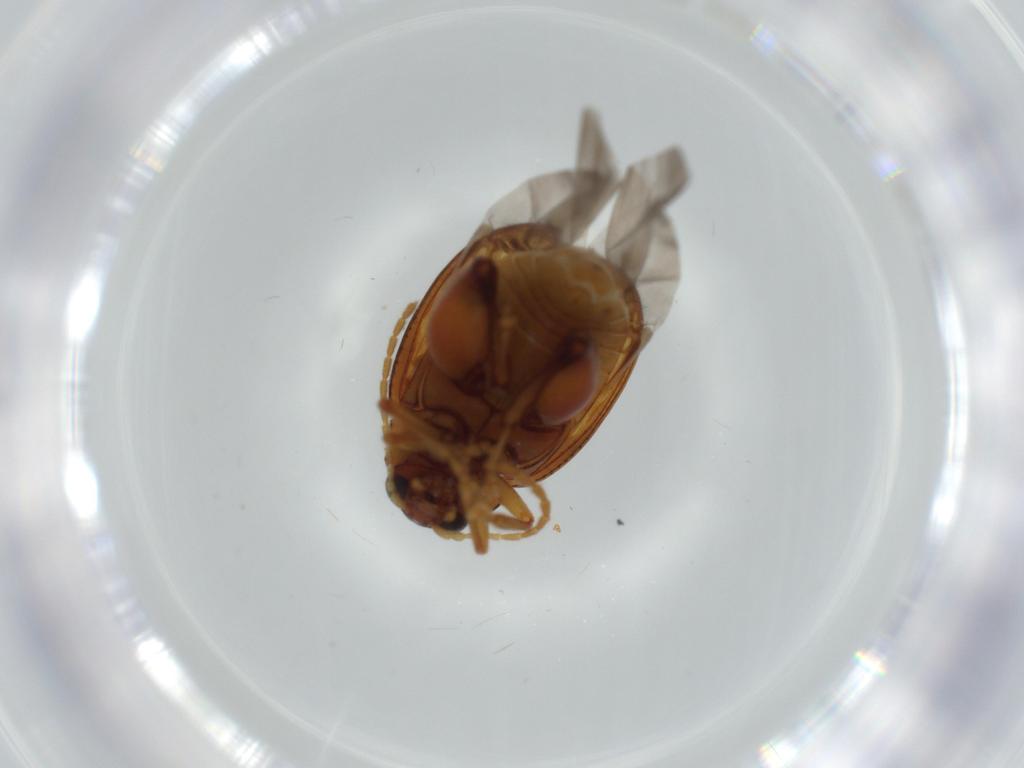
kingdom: Animalia
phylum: Arthropoda
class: Insecta
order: Coleoptera
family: Chrysomelidae
